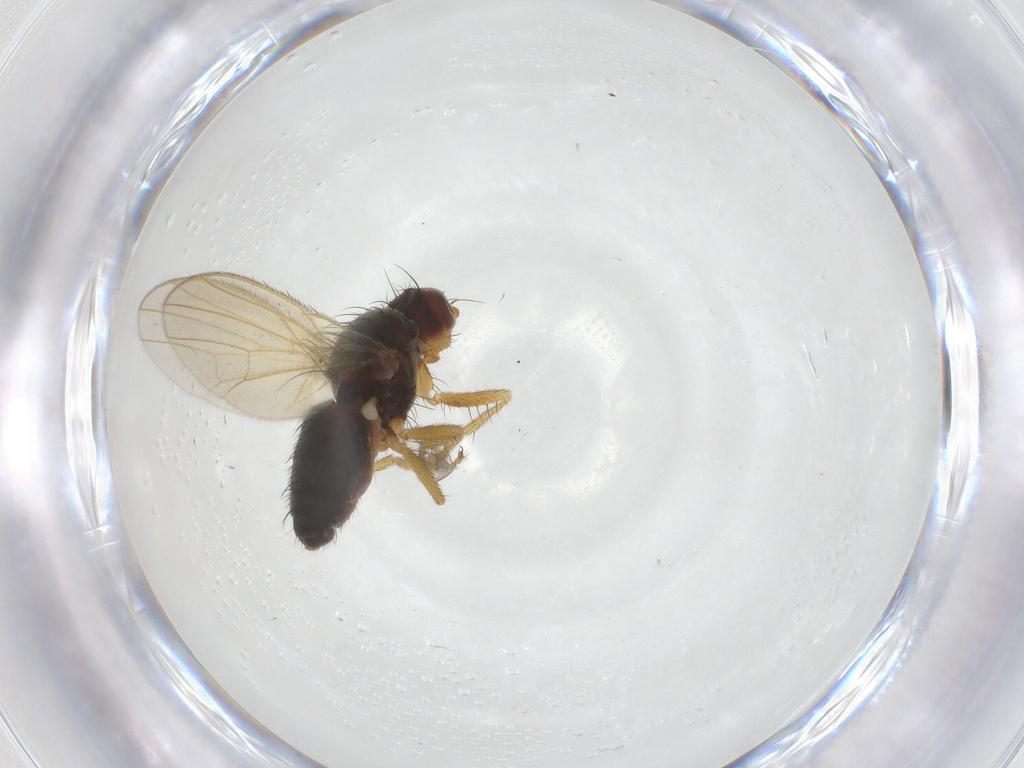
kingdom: Animalia
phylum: Arthropoda
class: Insecta
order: Diptera
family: Heleomyzidae
